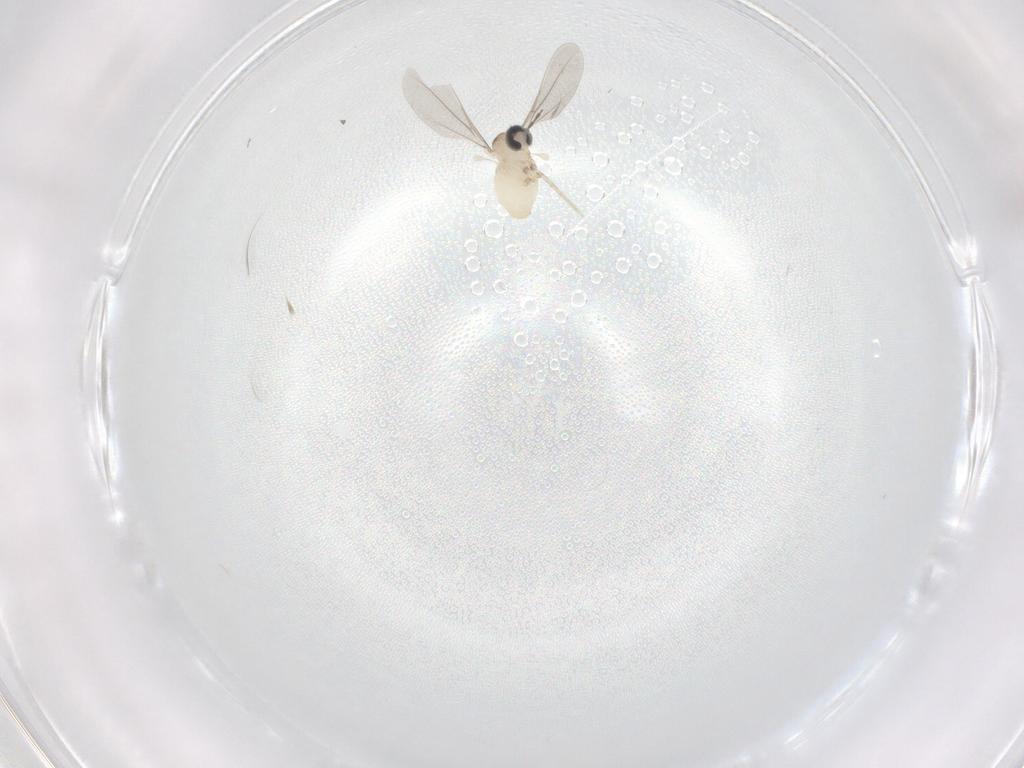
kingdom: Animalia
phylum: Arthropoda
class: Insecta
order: Diptera
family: Cecidomyiidae
